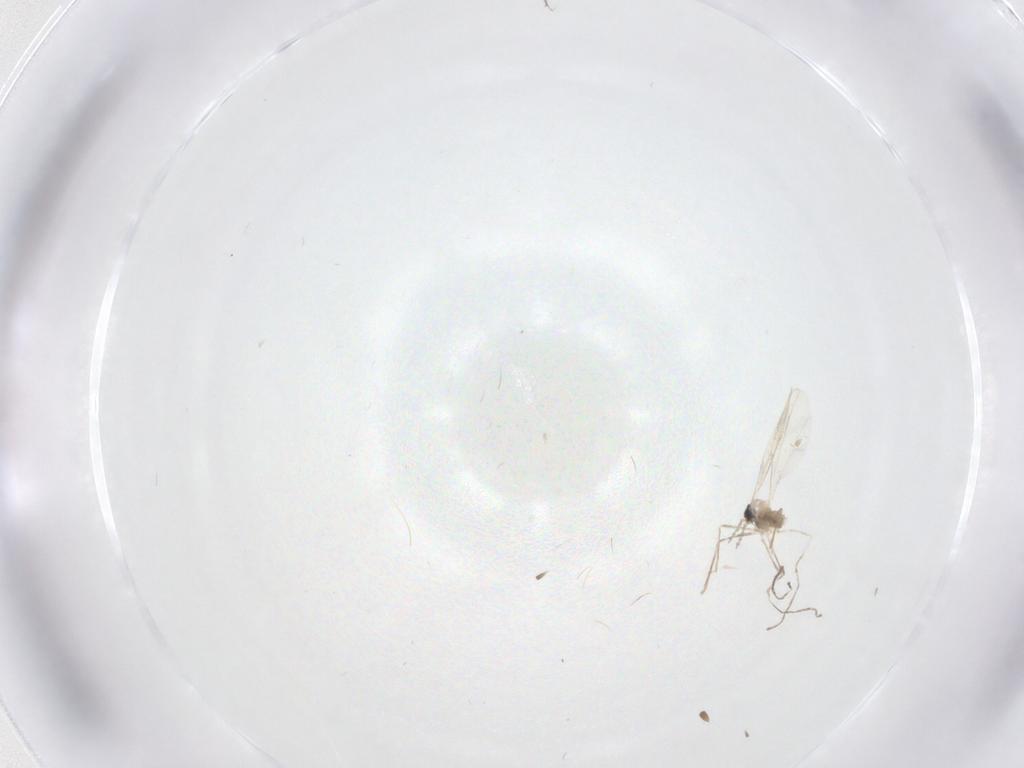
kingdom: Animalia
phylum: Arthropoda
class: Insecta
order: Diptera
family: Cecidomyiidae
